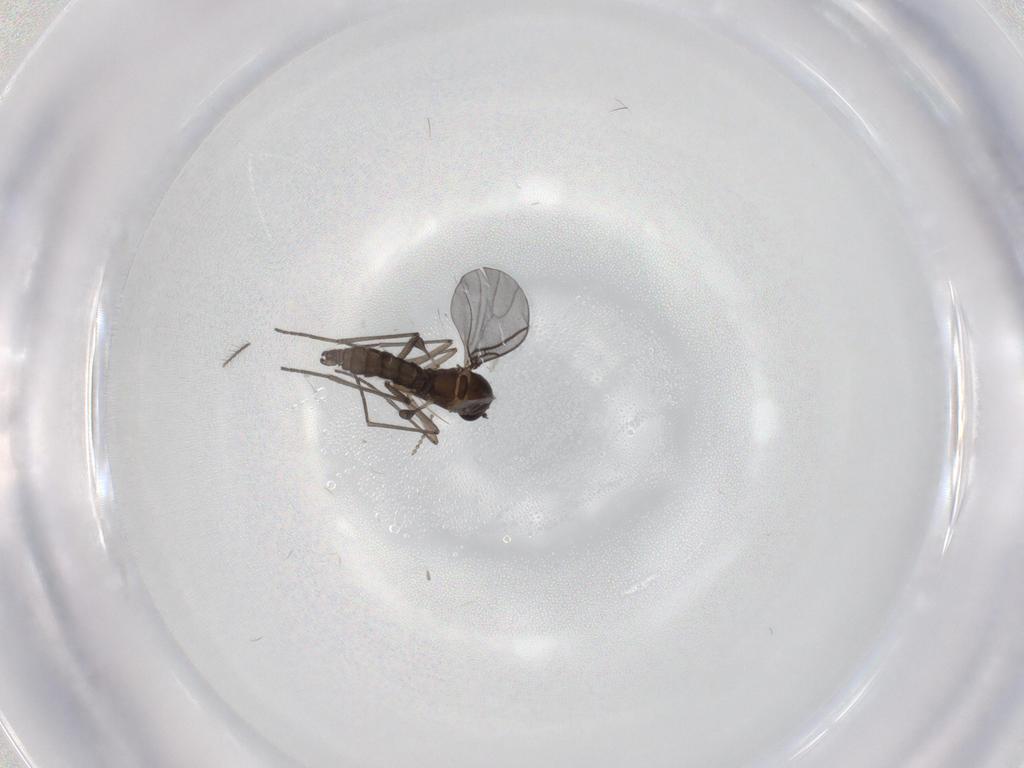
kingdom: Animalia
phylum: Arthropoda
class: Insecta
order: Diptera
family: Cecidomyiidae
